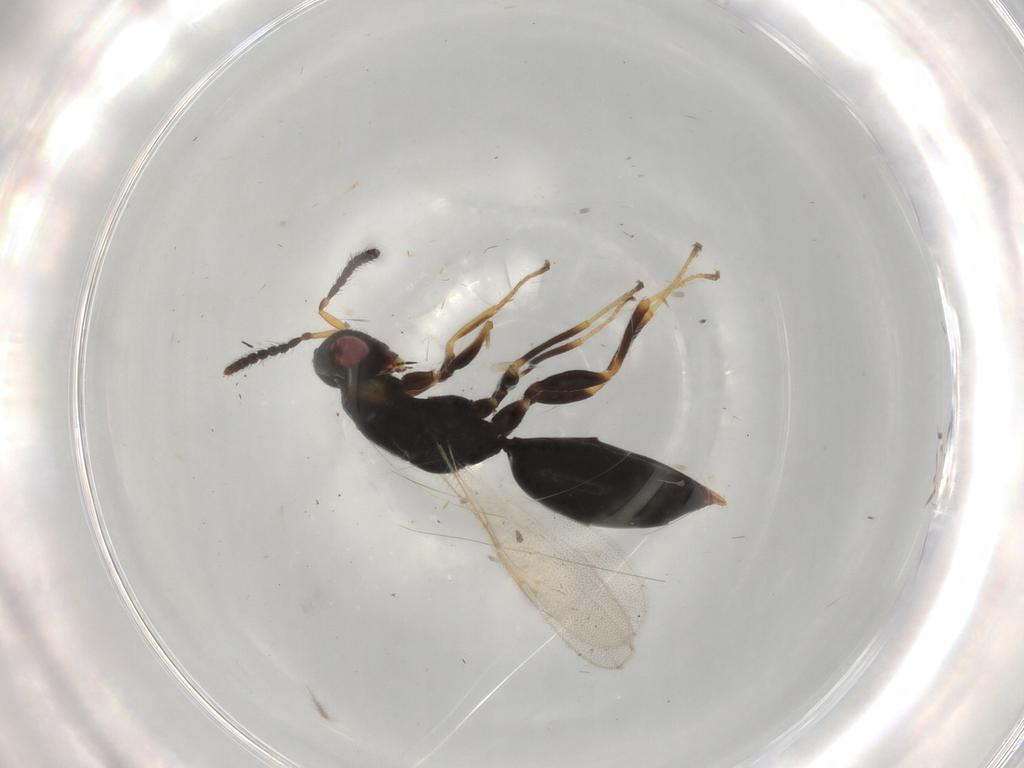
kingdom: Animalia
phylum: Arthropoda
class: Insecta
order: Hymenoptera
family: Eurytomidae
